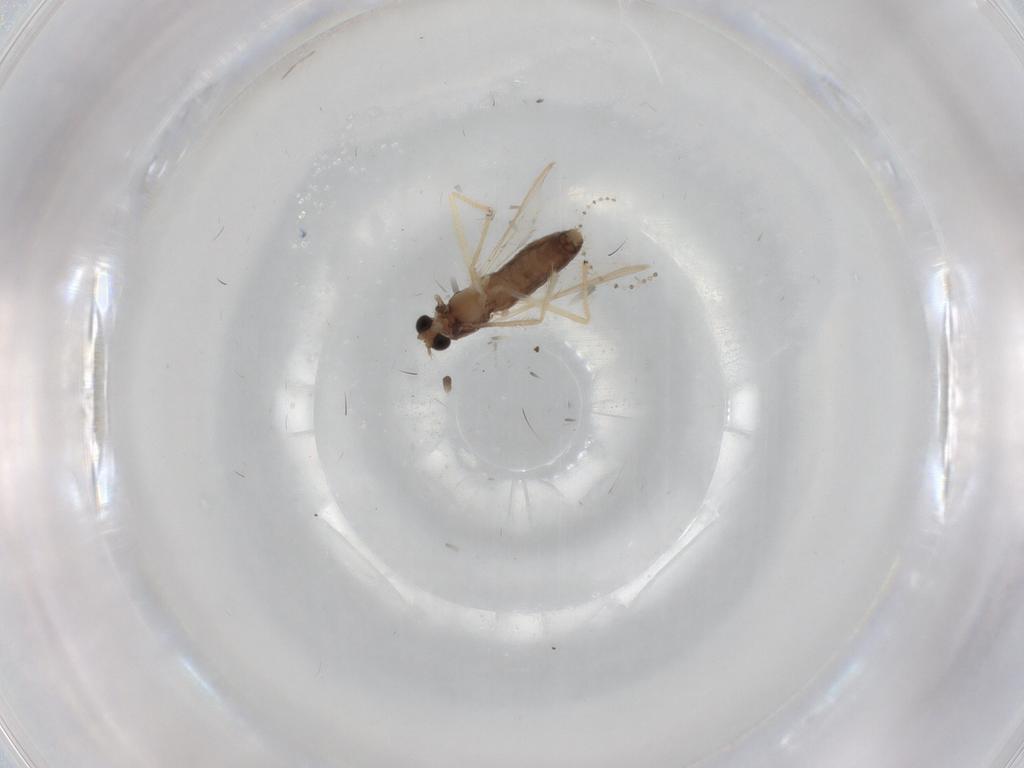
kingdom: Animalia
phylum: Arthropoda
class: Insecta
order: Diptera
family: Chironomidae
